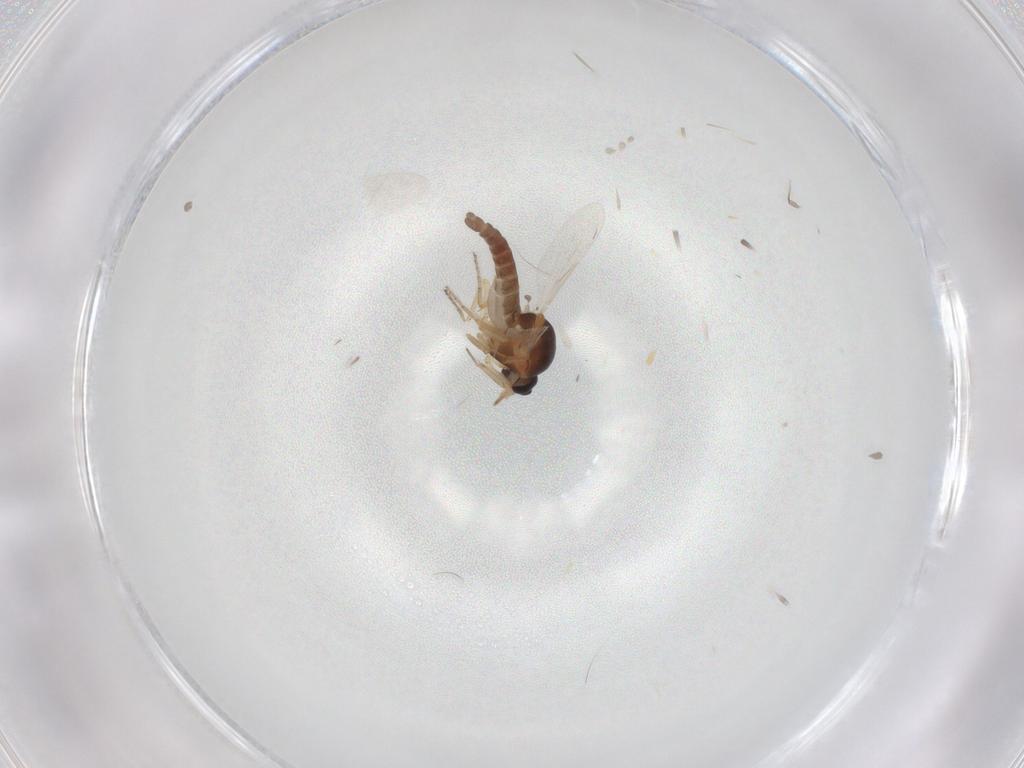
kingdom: Animalia
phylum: Arthropoda
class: Insecta
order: Diptera
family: Ceratopogonidae
